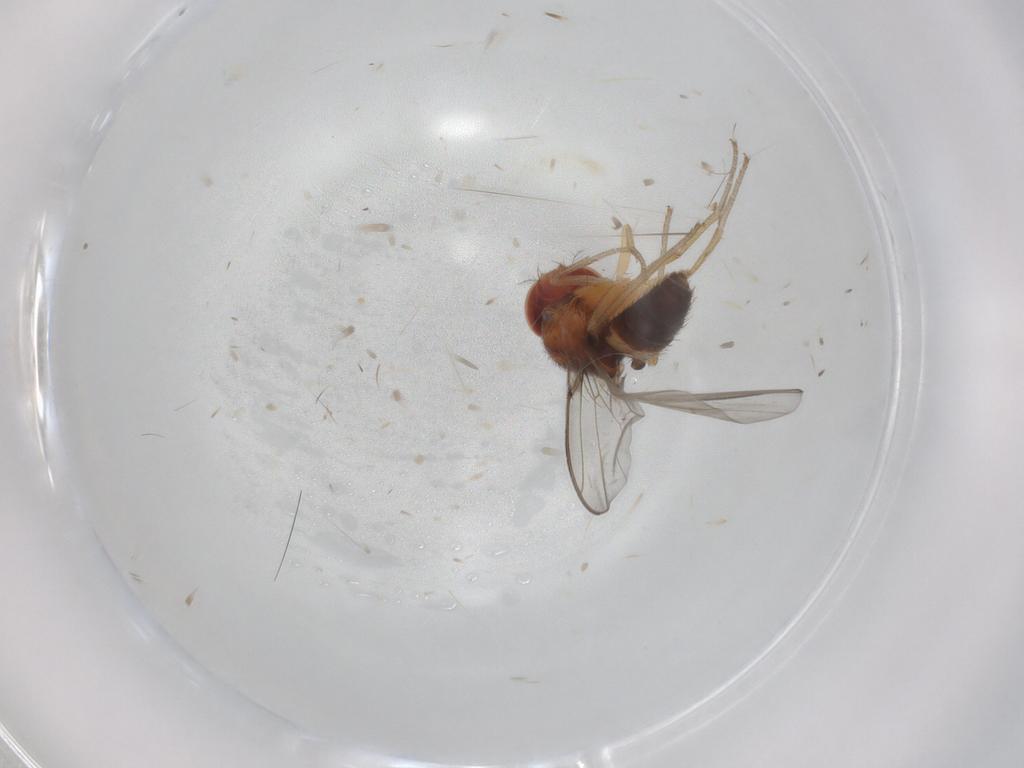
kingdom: Animalia
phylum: Arthropoda
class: Insecta
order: Diptera
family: Drosophilidae
